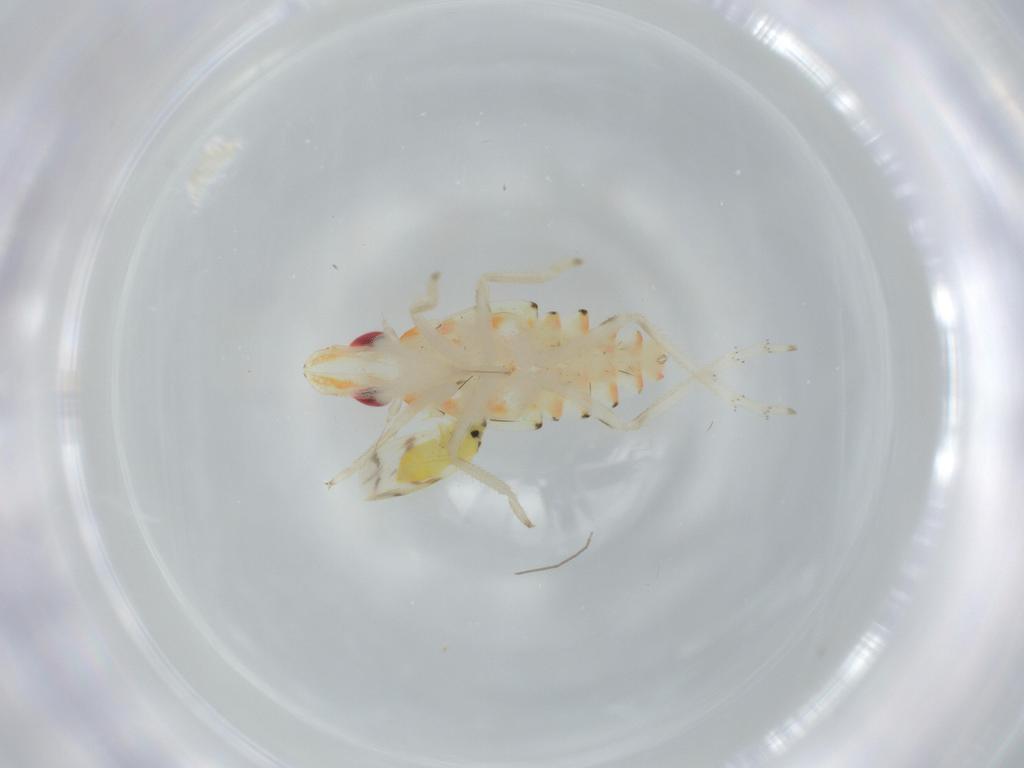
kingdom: Animalia
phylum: Arthropoda
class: Insecta
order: Hemiptera
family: Aleyrodidae
